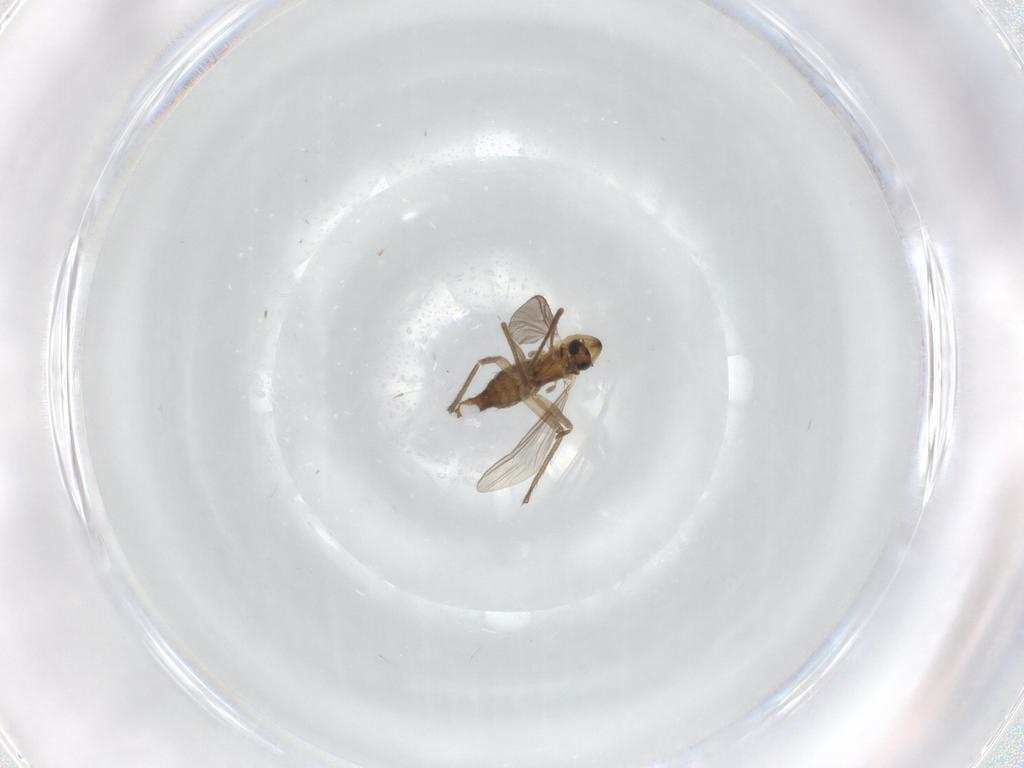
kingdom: Animalia
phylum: Arthropoda
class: Insecta
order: Diptera
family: Chironomidae
